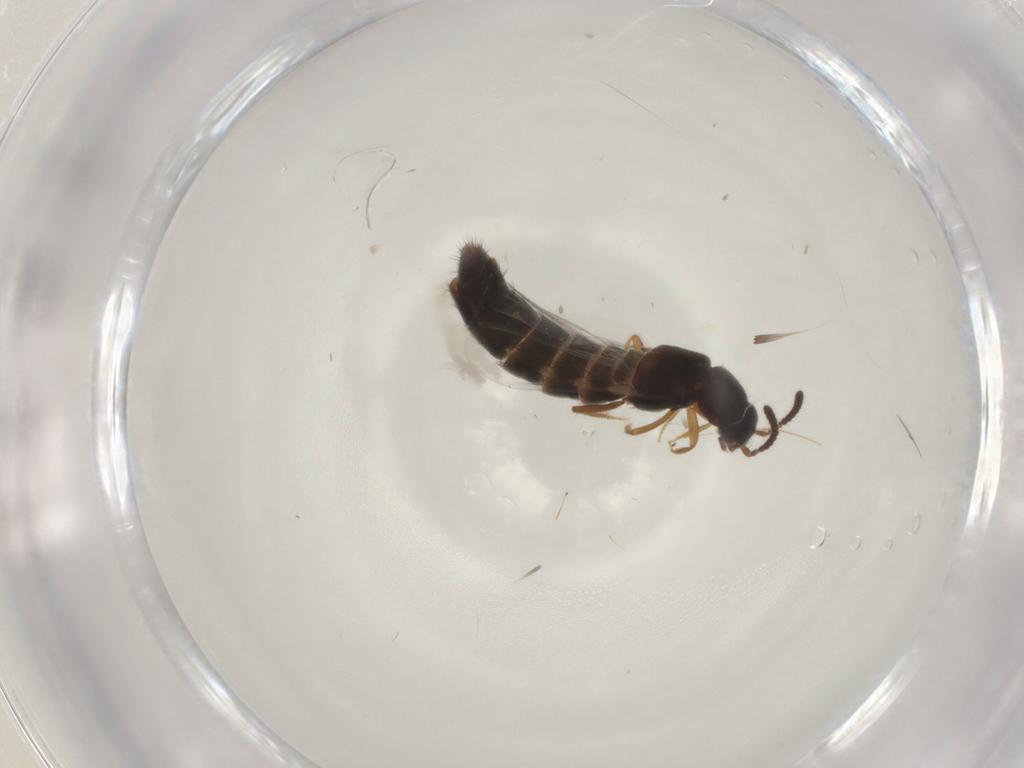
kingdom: Animalia
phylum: Arthropoda
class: Insecta
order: Coleoptera
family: Chrysomelidae
